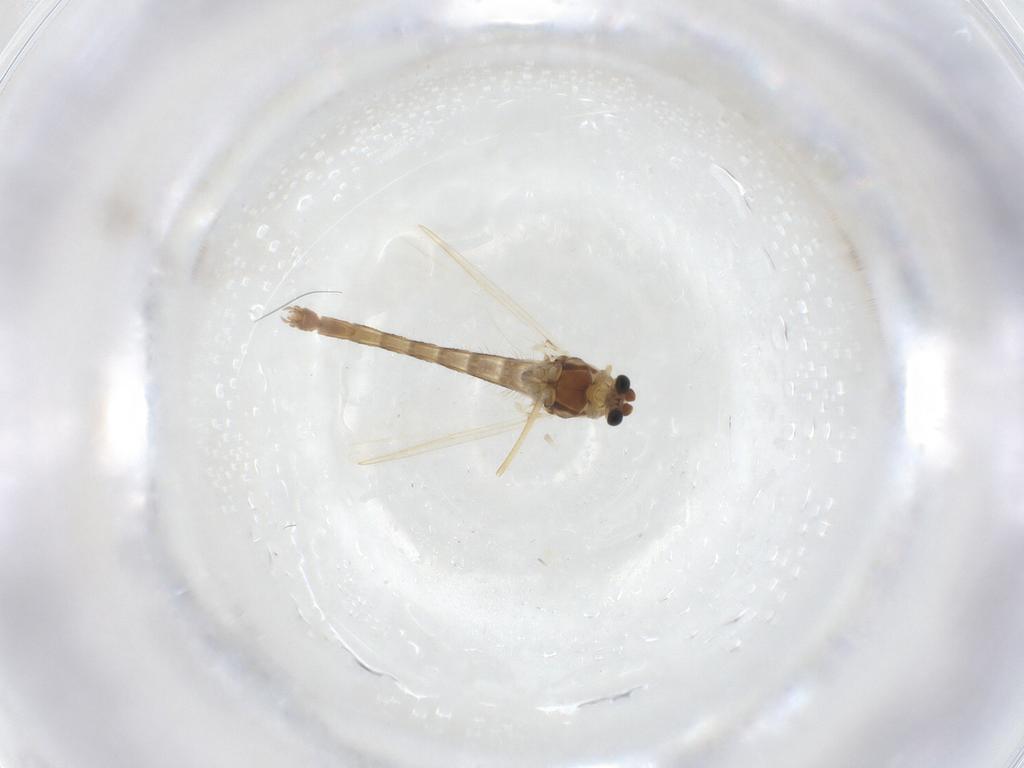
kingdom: Animalia
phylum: Arthropoda
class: Insecta
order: Diptera
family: Chironomidae
